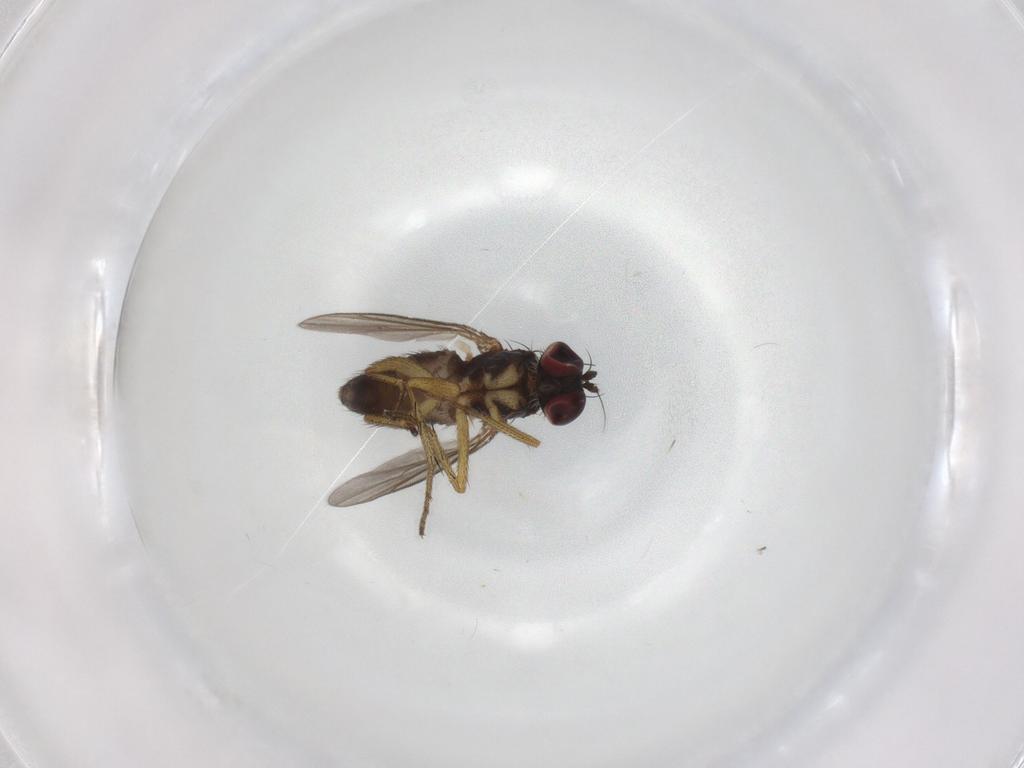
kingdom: Animalia
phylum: Arthropoda
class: Insecta
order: Diptera
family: Dolichopodidae
